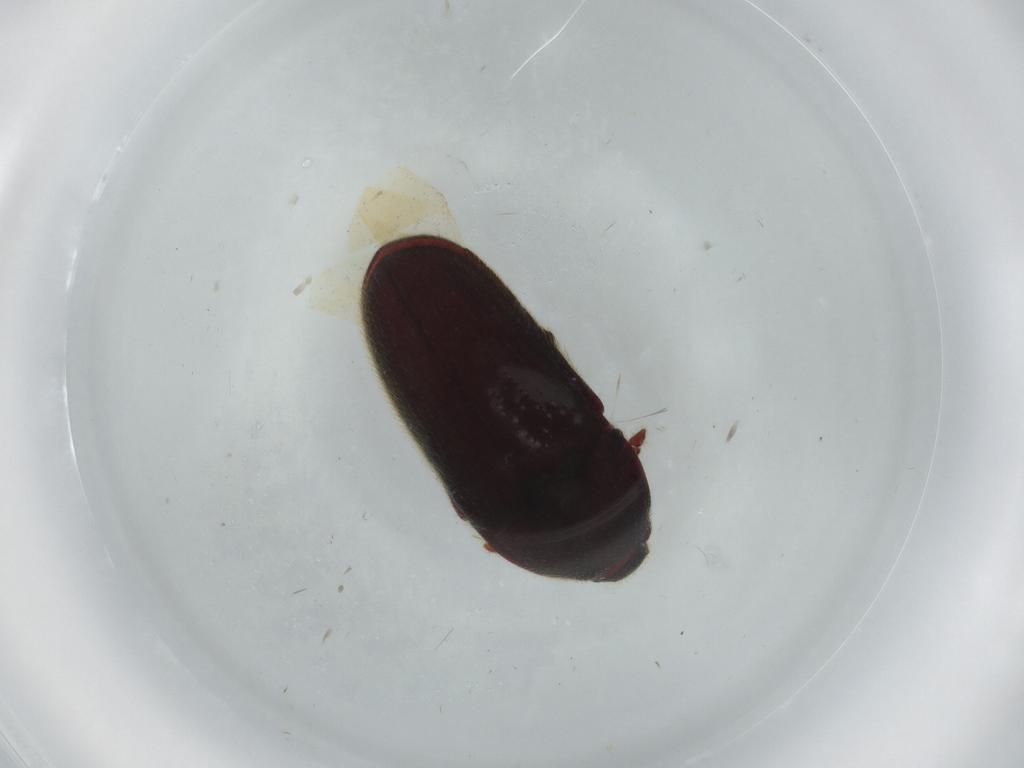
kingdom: Animalia
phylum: Arthropoda
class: Insecta
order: Coleoptera
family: Throscidae
